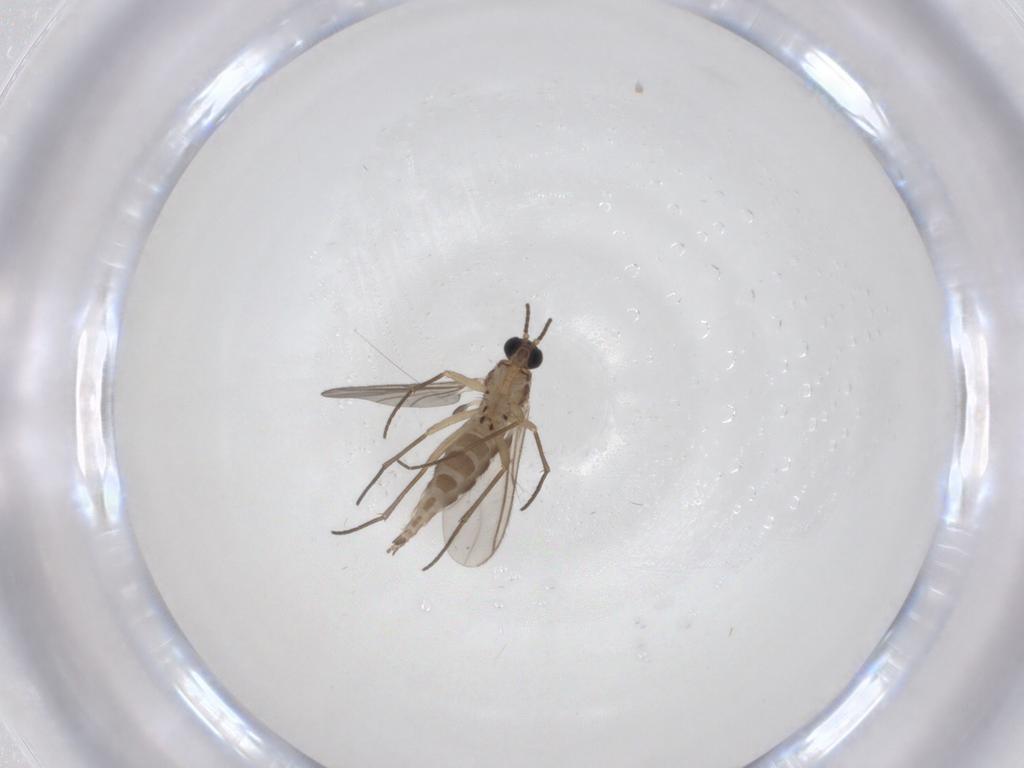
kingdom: Animalia
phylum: Arthropoda
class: Insecta
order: Diptera
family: Sciaridae
